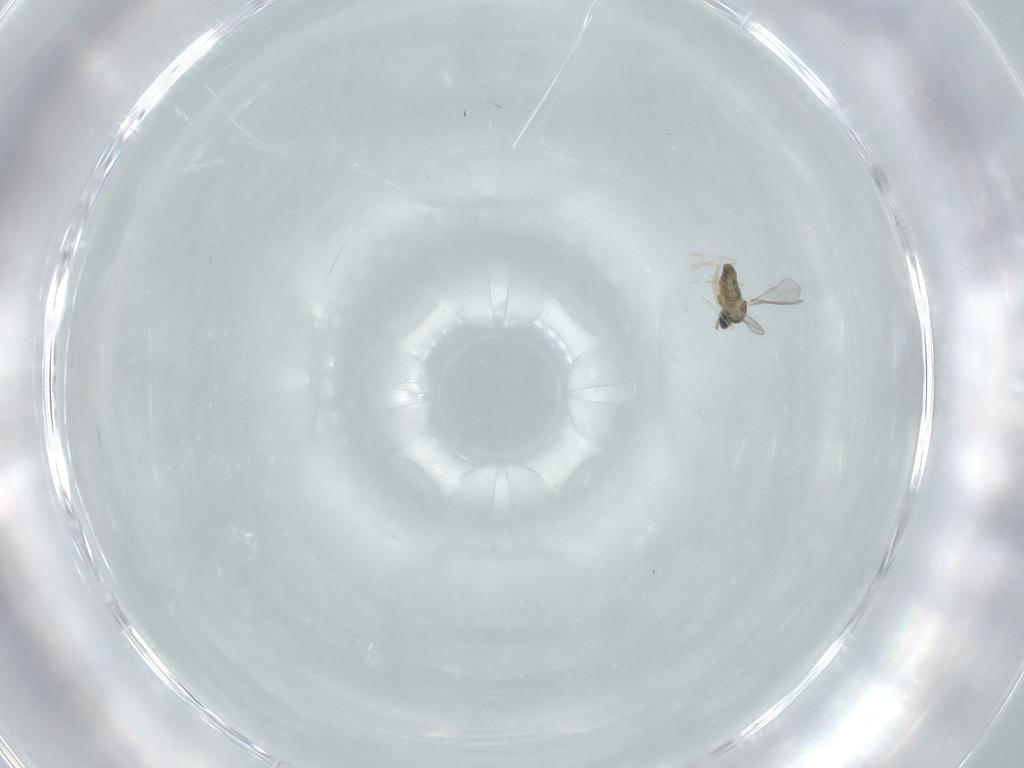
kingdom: Animalia
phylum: Arthropoda
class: Insecta
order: Diptera
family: Cecidomyiidae
